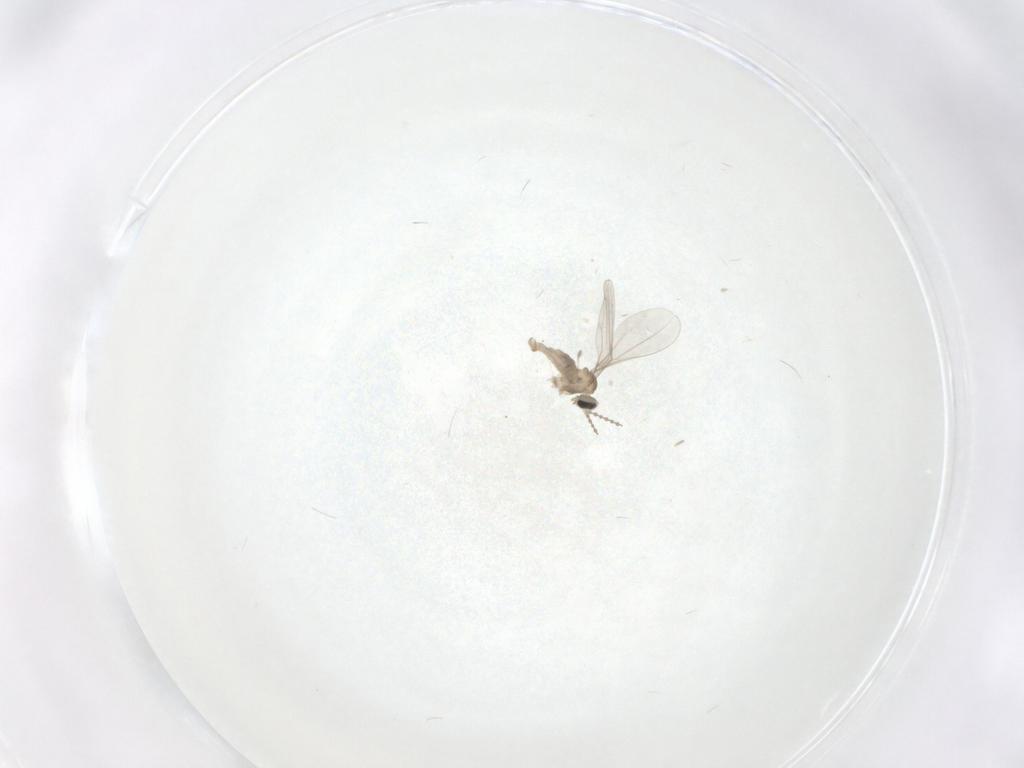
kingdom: Animalia
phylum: Arthropoda
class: Insecta
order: Diptera
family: Cecidomyiidae
